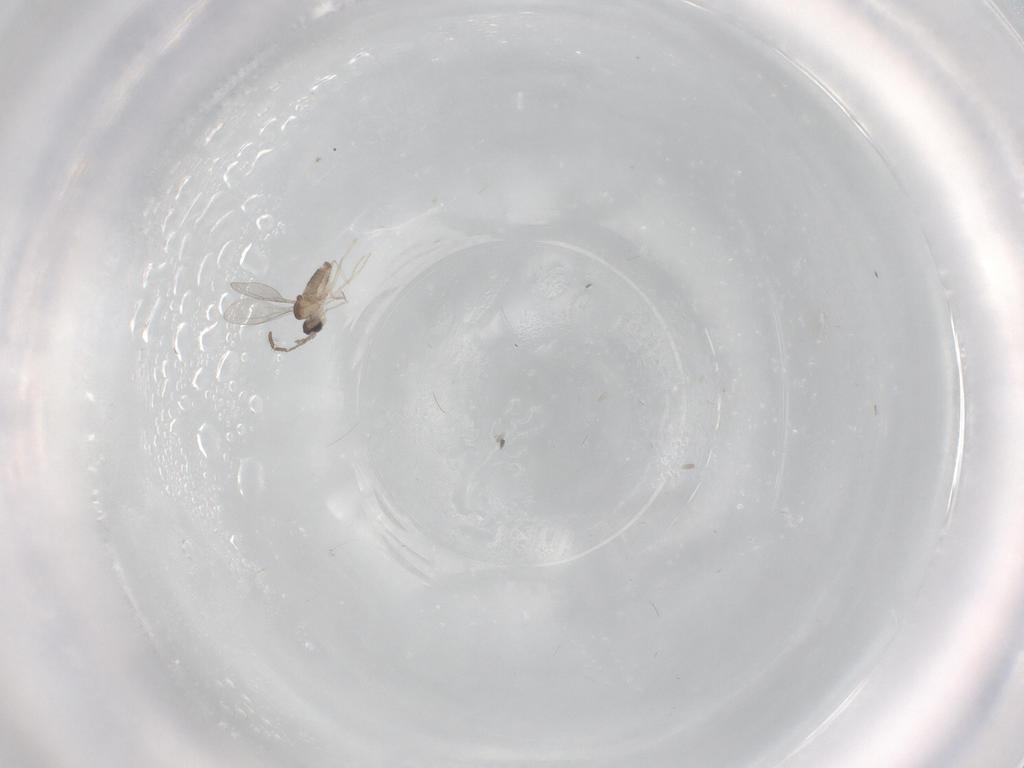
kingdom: Animalia
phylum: Arthropoda
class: Insecta
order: Diptera
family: Cecidomyiidae
